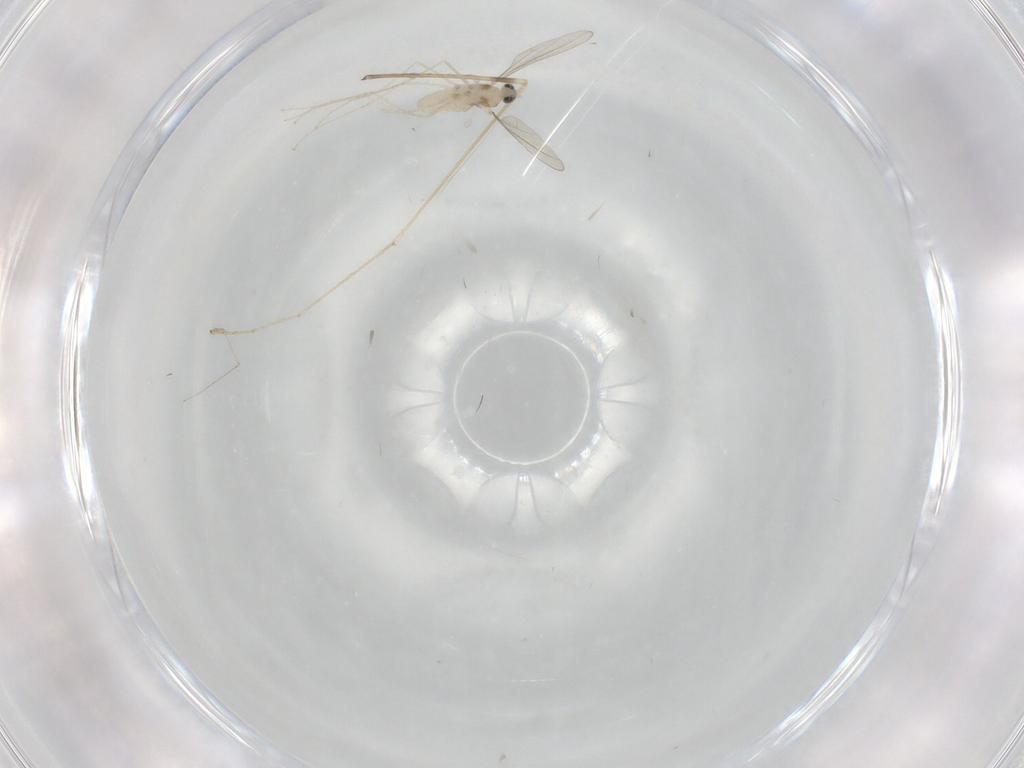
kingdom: Animalia
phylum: Arthropoda
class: Insecta
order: Diptera
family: Cecidomyiidae
